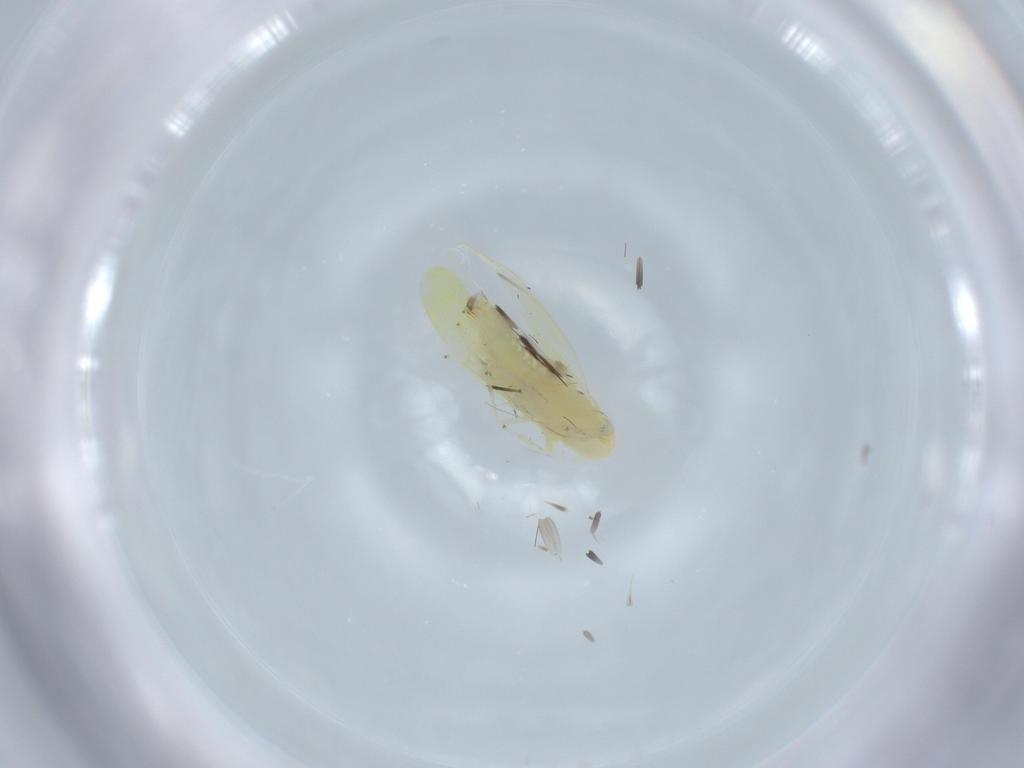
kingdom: Animalia
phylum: Arthropoda
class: Insecta
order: Hemiptera
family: Cicadellidae
